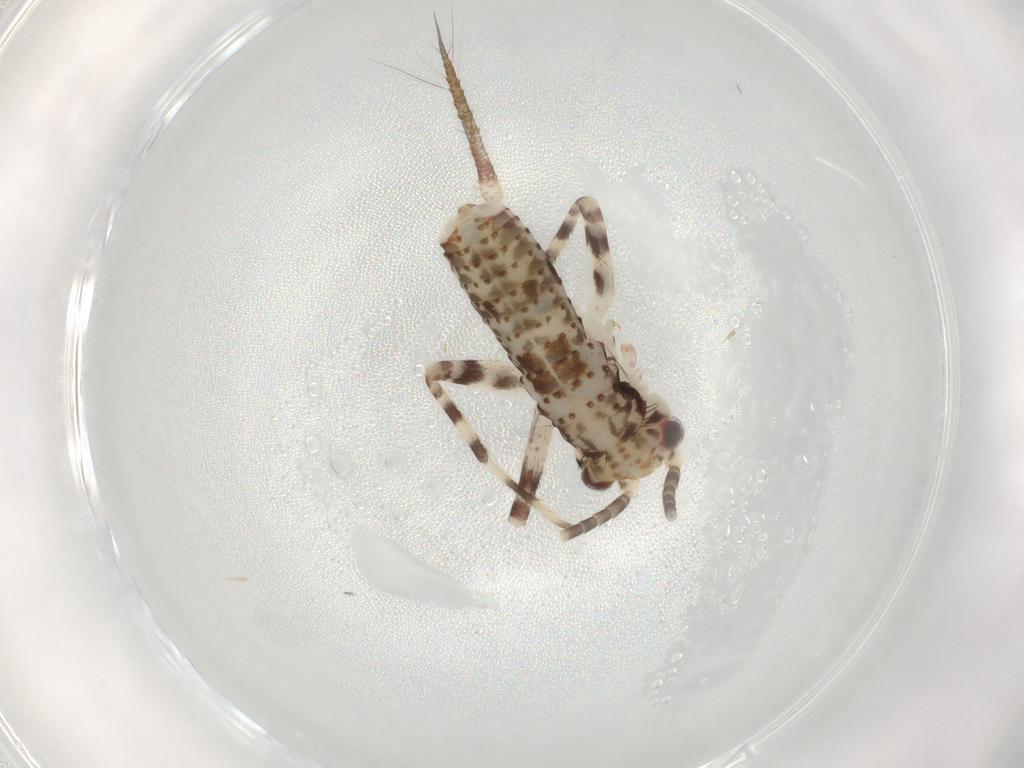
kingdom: Animalia
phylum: Arthropoda
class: Insecta
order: Orthoptera
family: Gryllidae
